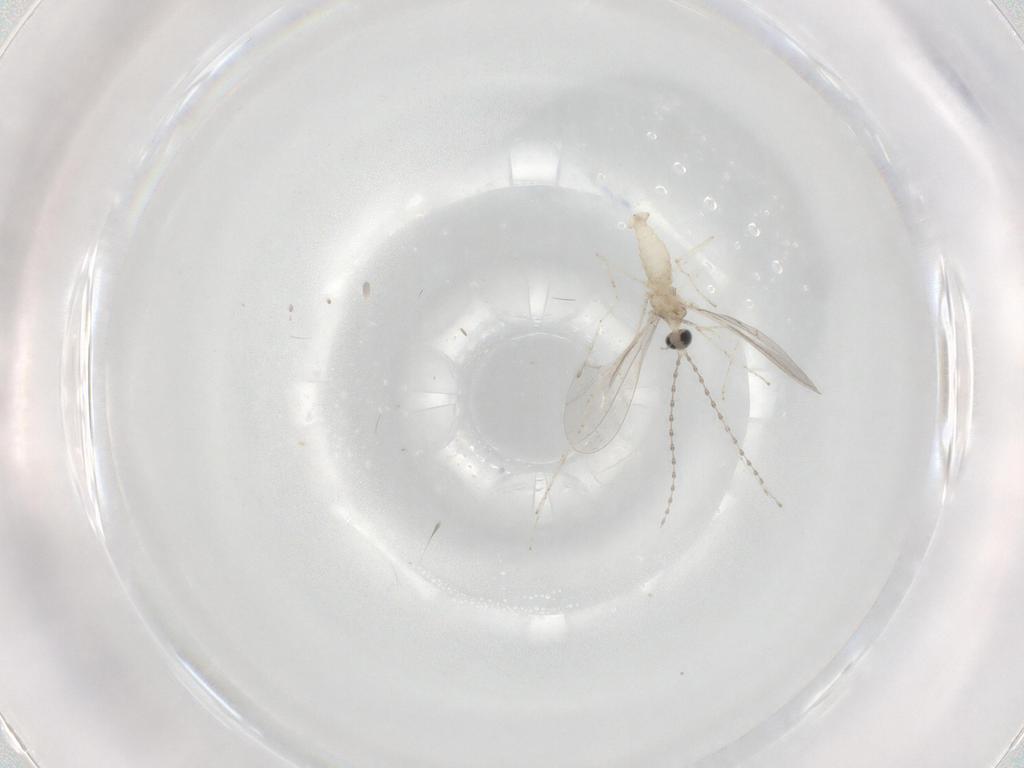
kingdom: Animalia
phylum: Arthropoda
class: Insecta
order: Diptera
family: Cecidomyiidae
